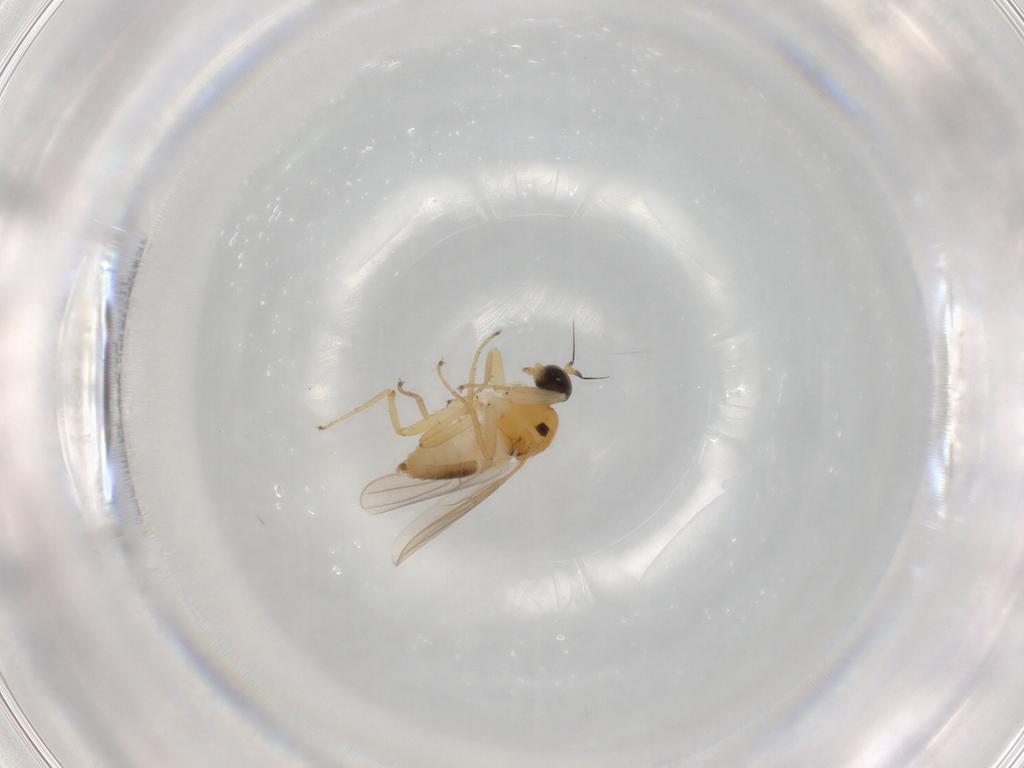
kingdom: Animalia
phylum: Arthropoda
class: Insecta
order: Diptera
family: Hybotidae
